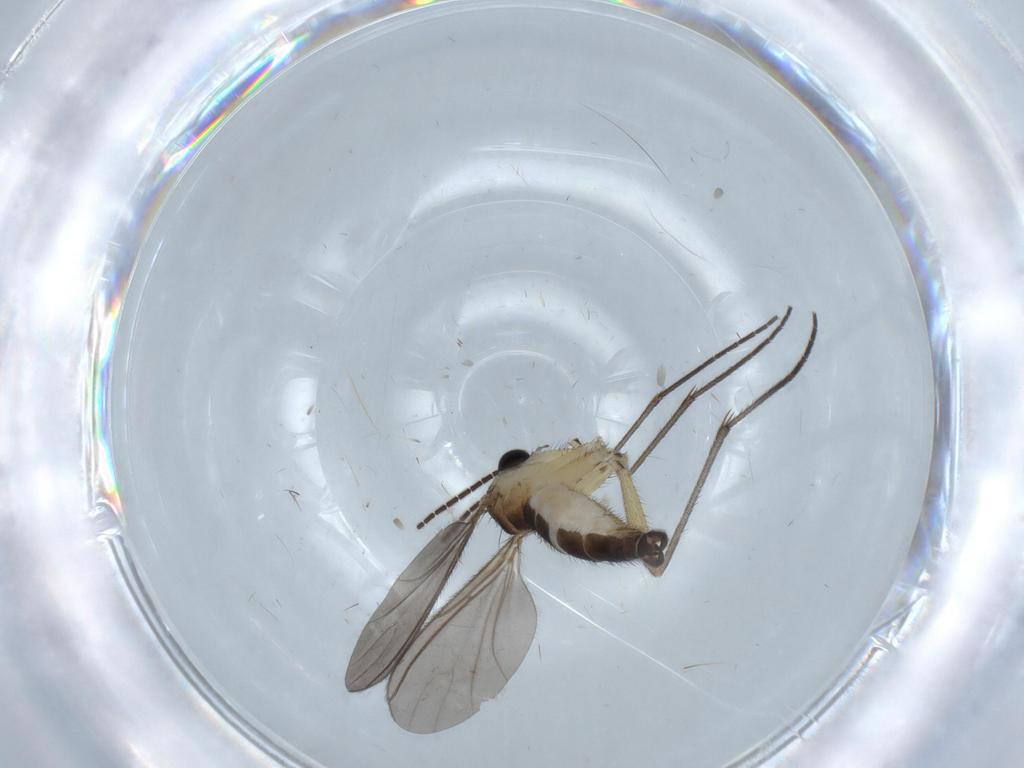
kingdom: Animalia
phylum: Arthropoda
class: Insecta
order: Diptera
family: Sciaridae
